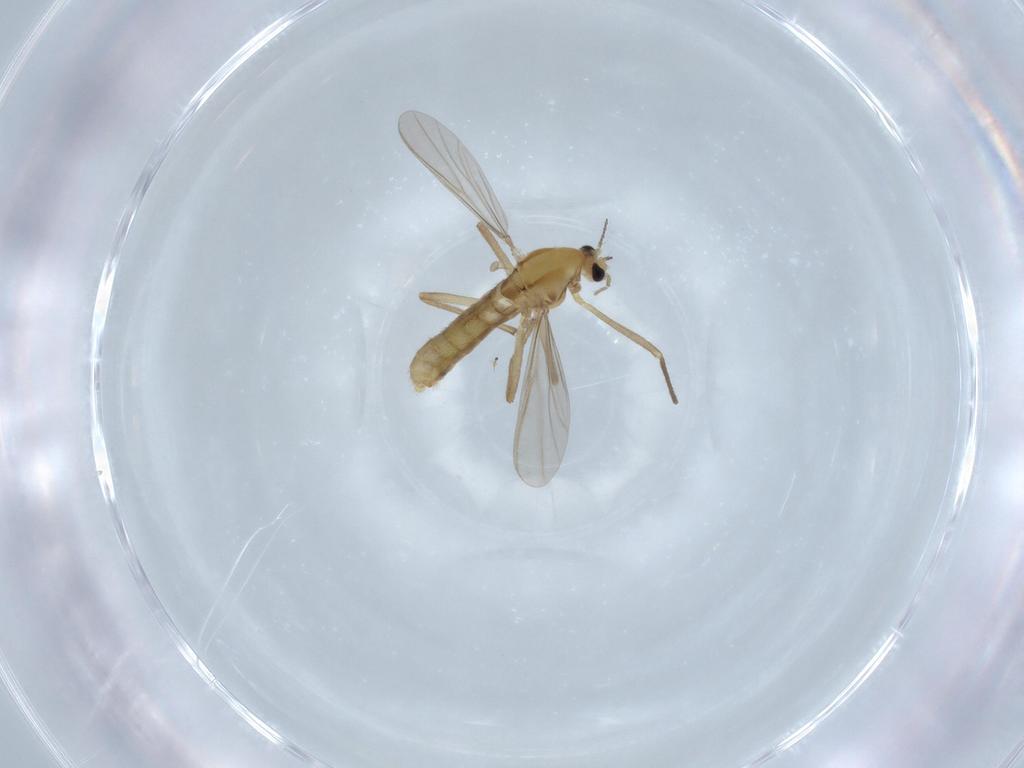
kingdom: Animalia
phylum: Arthropoda
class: Insecta
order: Diptera
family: Chironomidae
